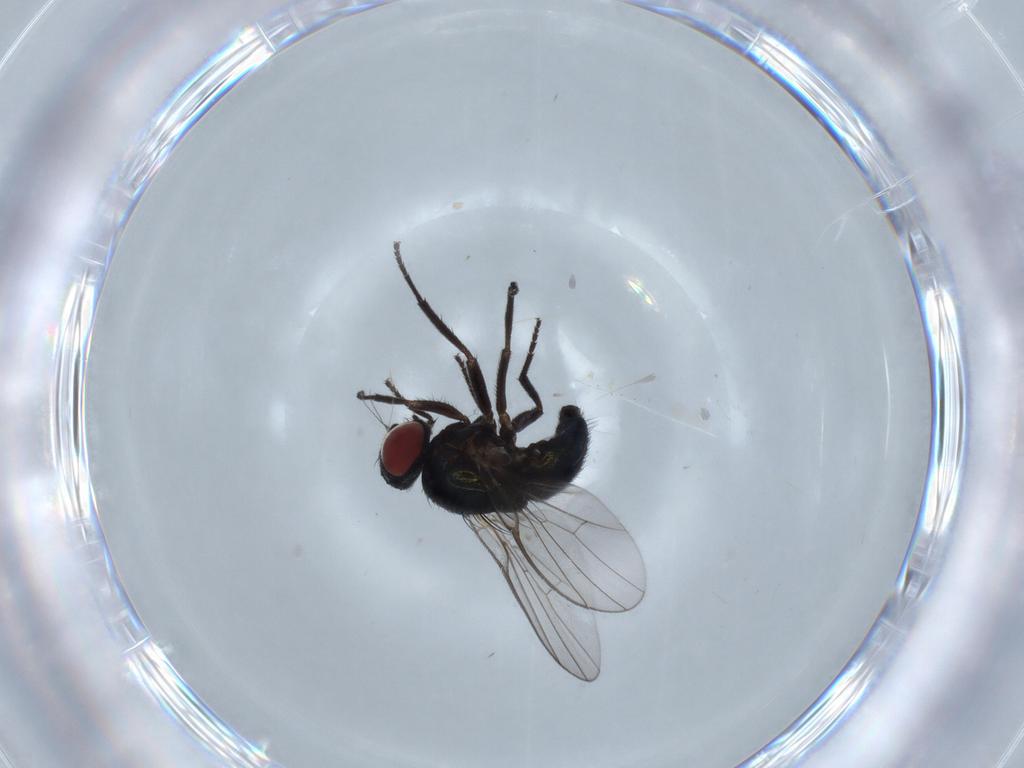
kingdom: Animalia
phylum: Arthropoda
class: Insecta
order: Diptera
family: Agromyzidae
